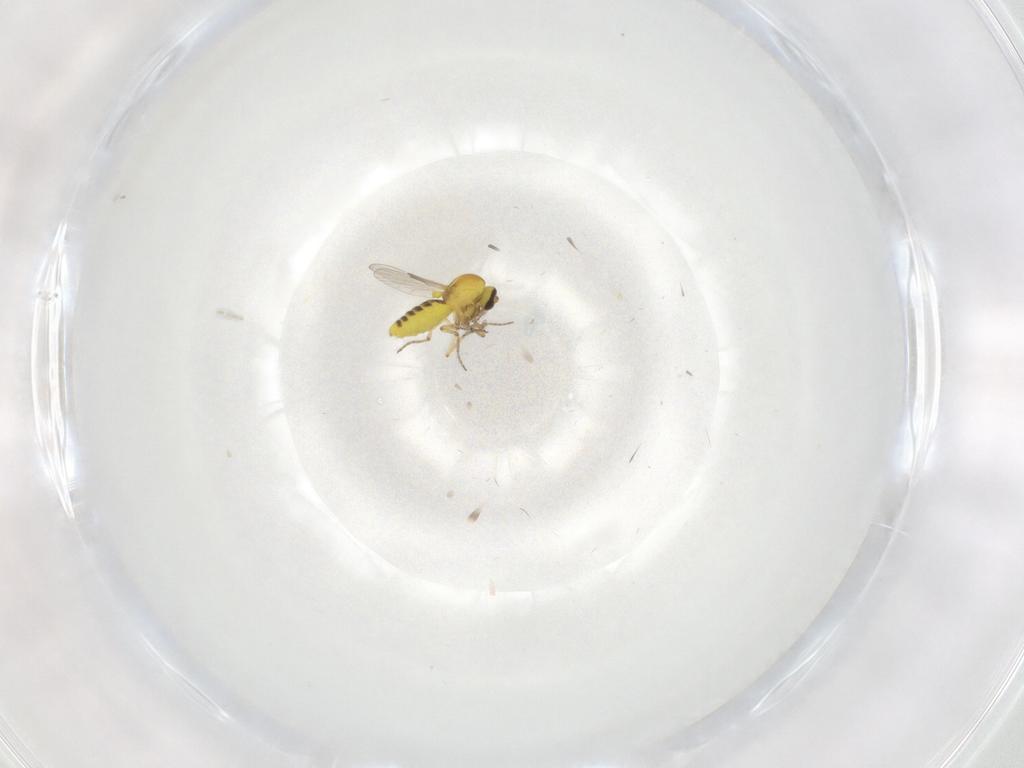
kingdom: Animalia
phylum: Arthropoda
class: Insecta
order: Diptera
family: Ceratopogonidae
